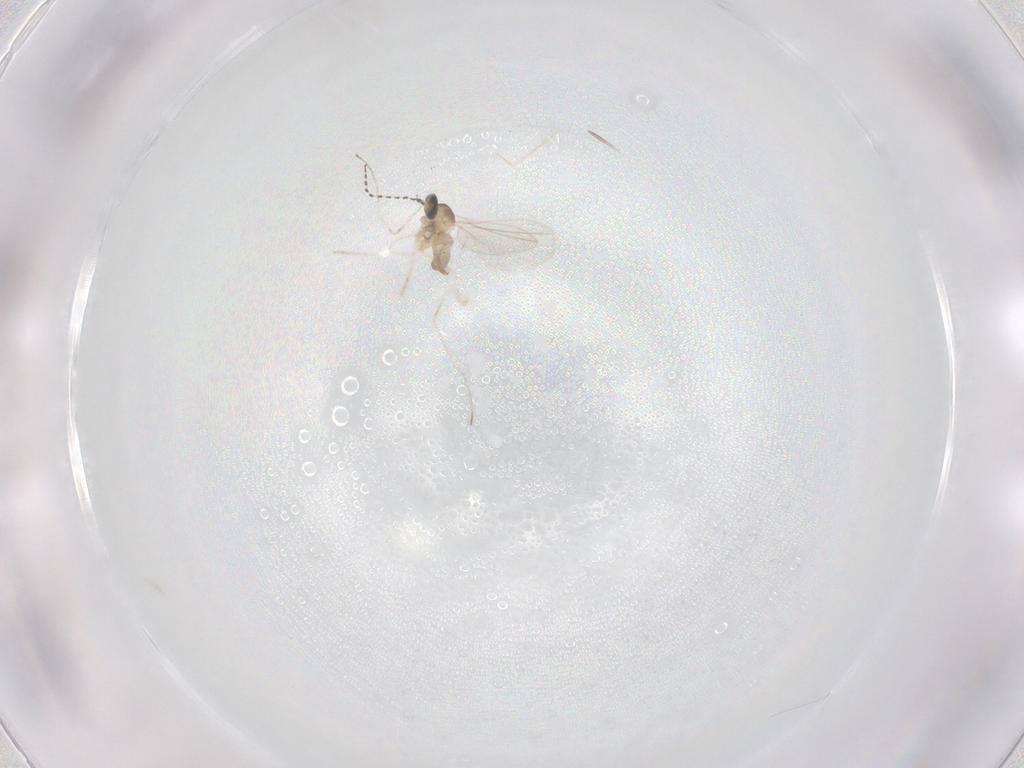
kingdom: Animalia
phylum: Arthropoda
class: Insecta
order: Diptera
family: Cecidomyiidae
